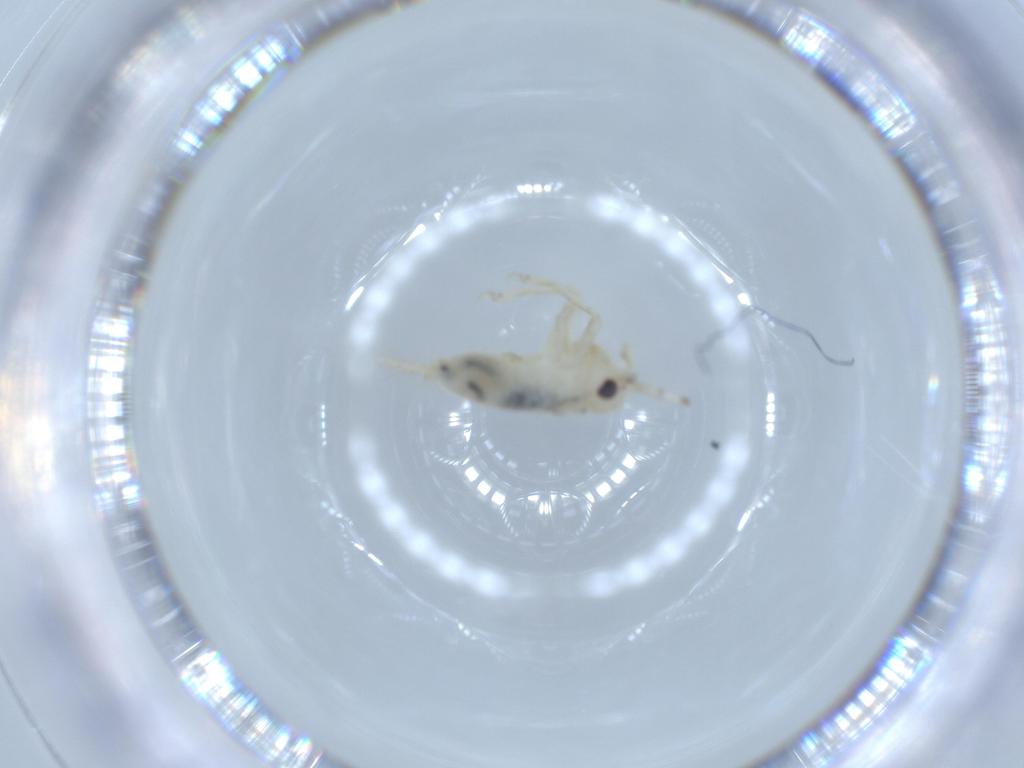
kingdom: Animalia
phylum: Arthropoda
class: Insecta
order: Orthoptera
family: Trigonidiidae
